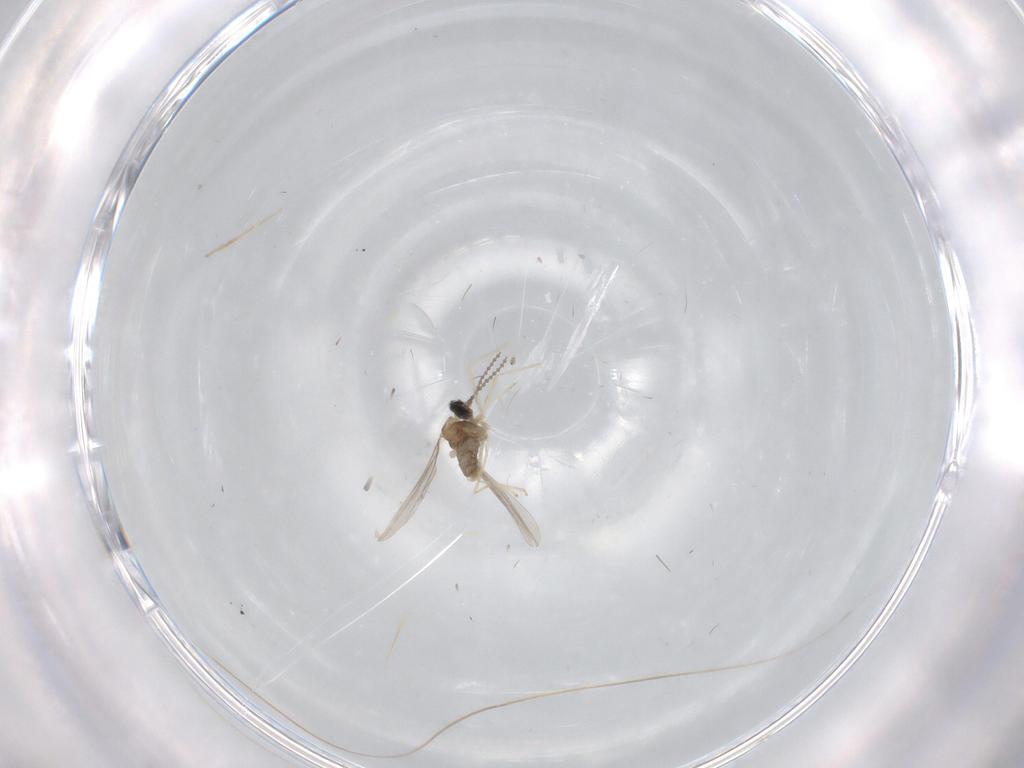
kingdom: Animalia
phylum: Arthropoda
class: Insecta
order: Diptera
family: Cecidomyiidae
